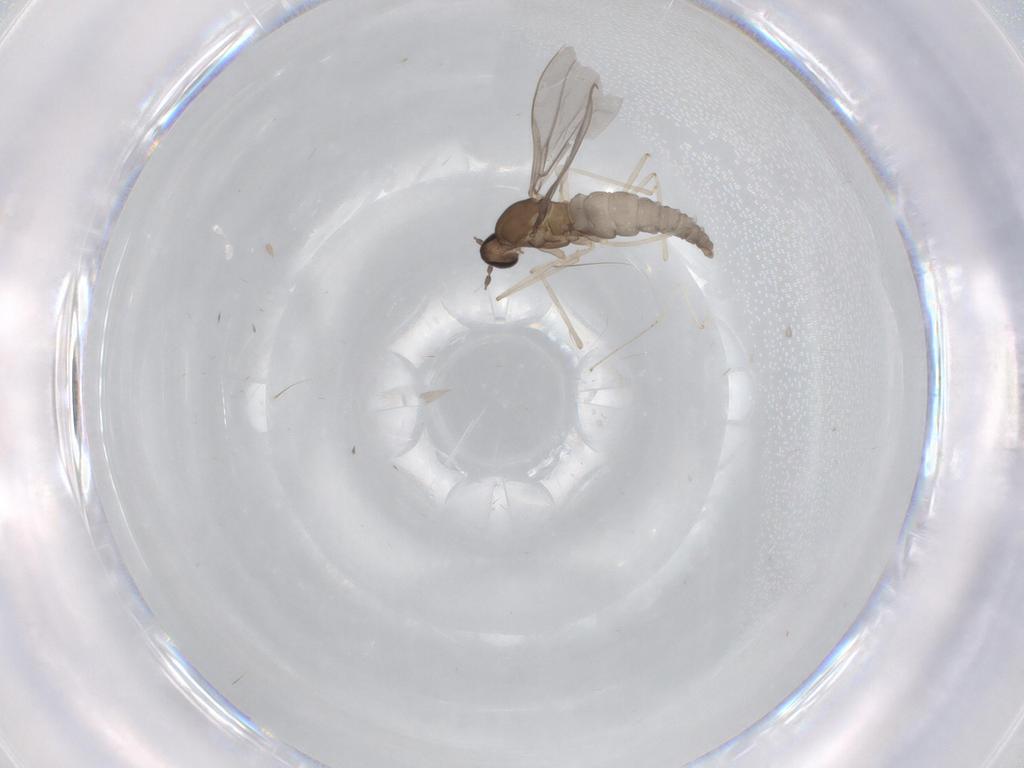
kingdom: Animalia
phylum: Arthropoda
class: Insecta
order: Diptera
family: Cecidomyiidae
